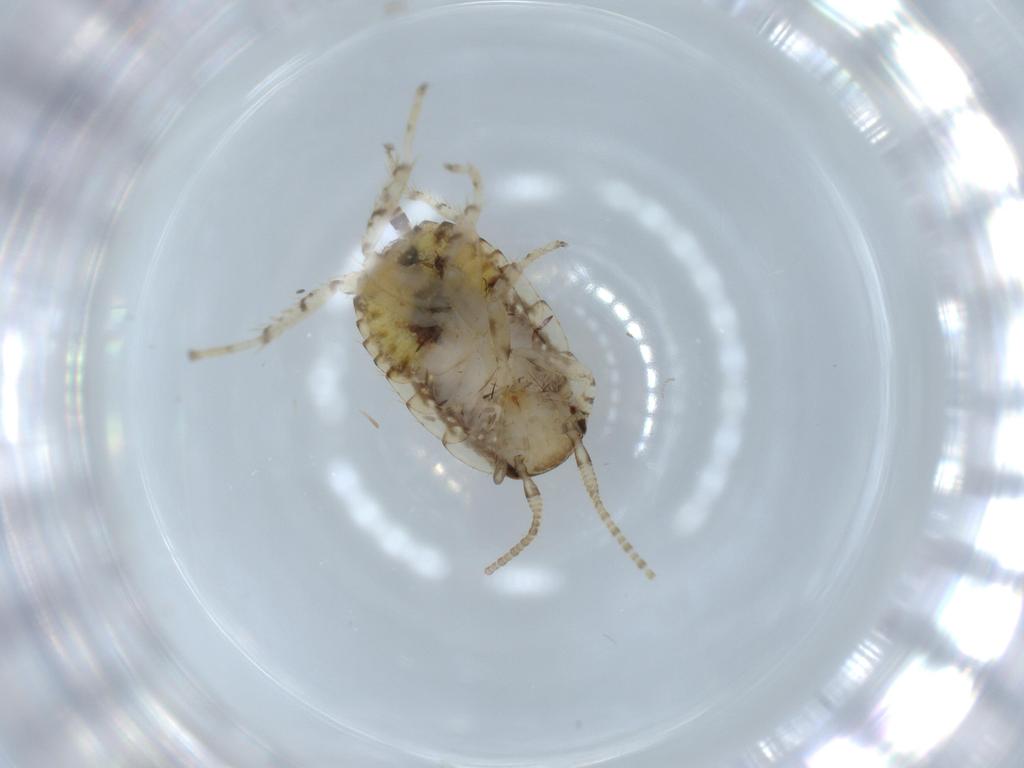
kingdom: Animalia
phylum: Arthropoda
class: Insecta
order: Blattodea
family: Ectobiidae
